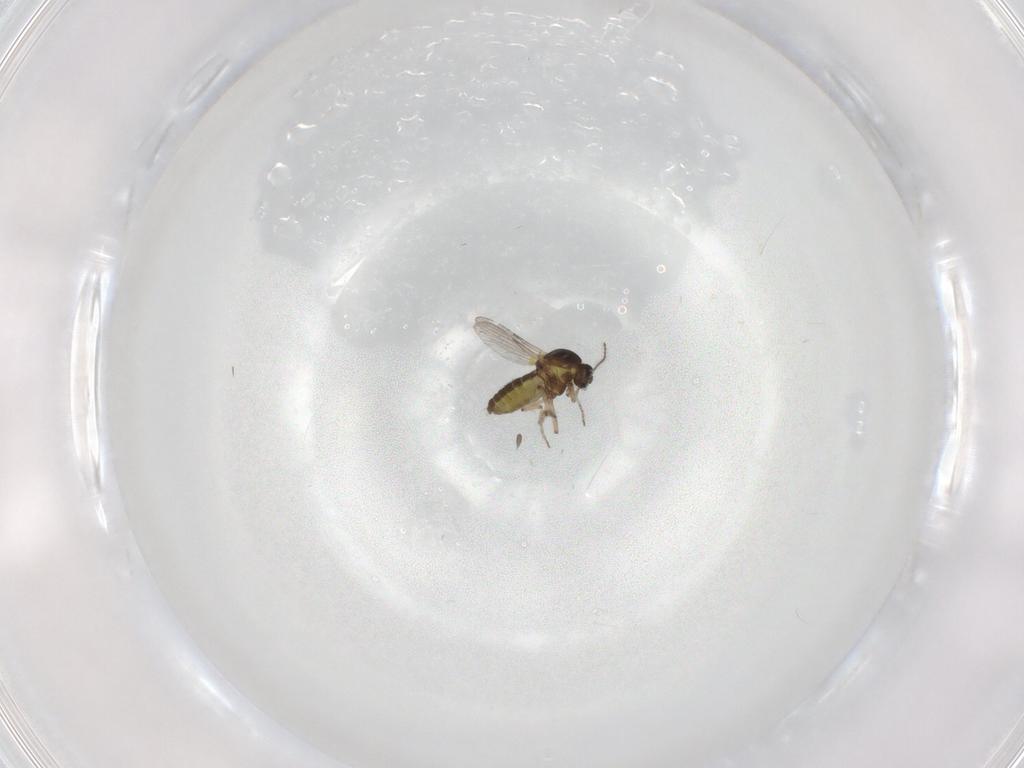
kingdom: Animalia
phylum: Arthropoda
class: Insecta
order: Diptera
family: Ceratopogonidae
